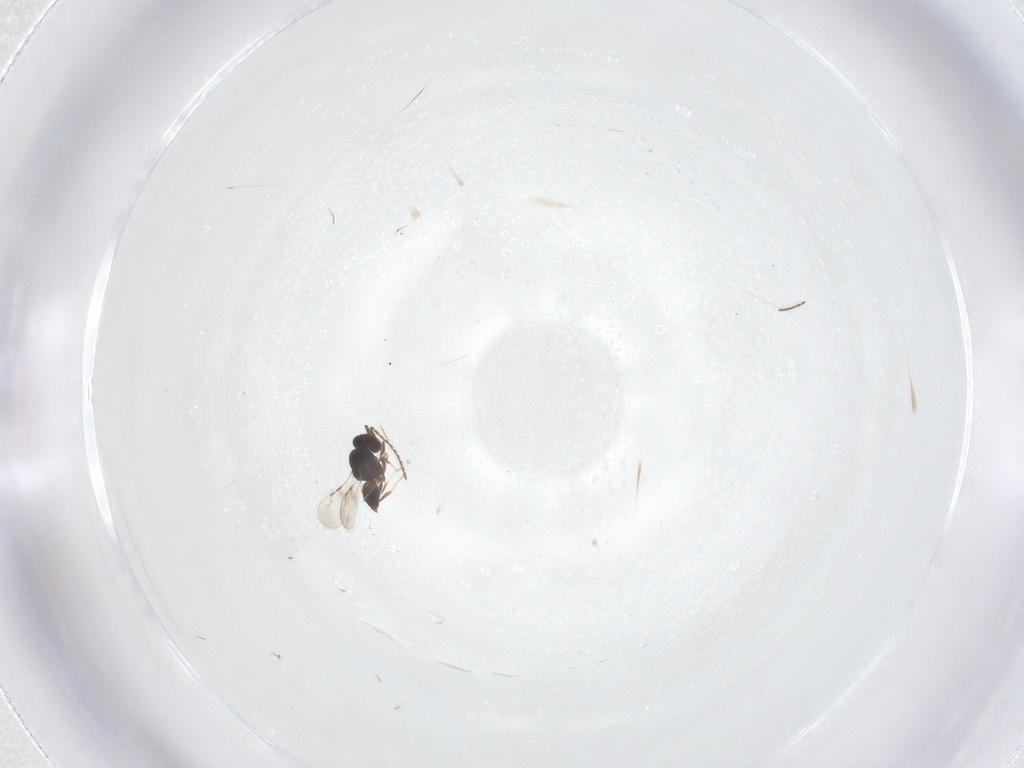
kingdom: Animalia
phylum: Arthropoda
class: Insecta
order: Hymenoptera
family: Ceraphronidae
